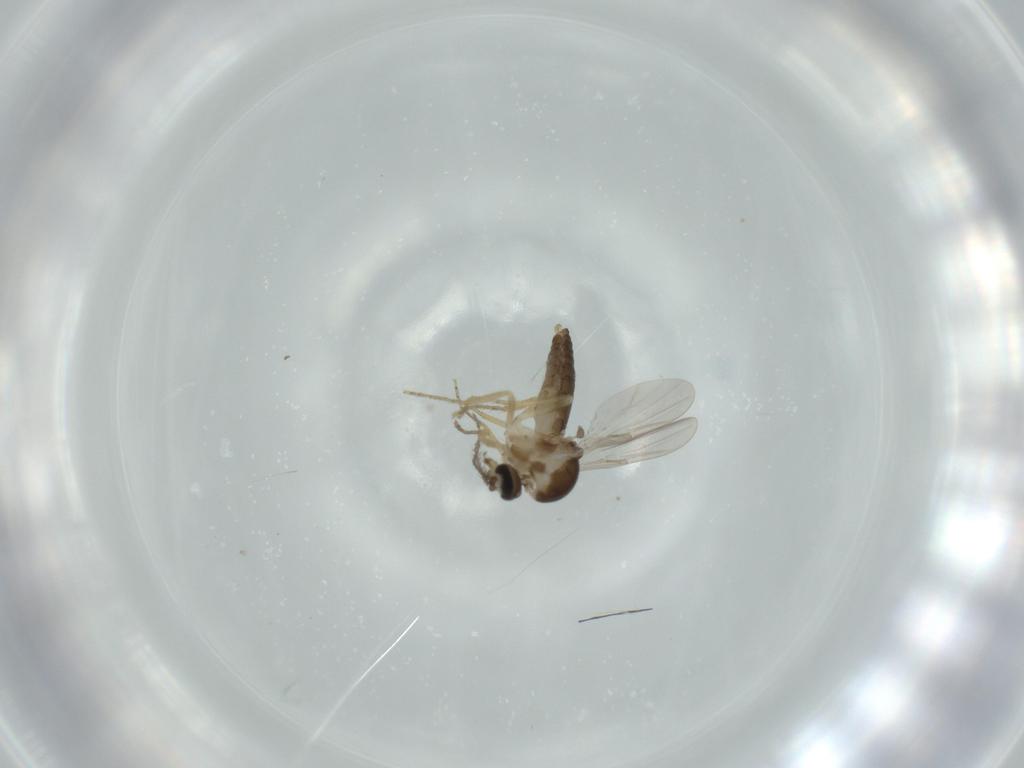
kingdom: Animalia
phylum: Arthropoda
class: Insecta
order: Diptera
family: Ceratopogonidae
